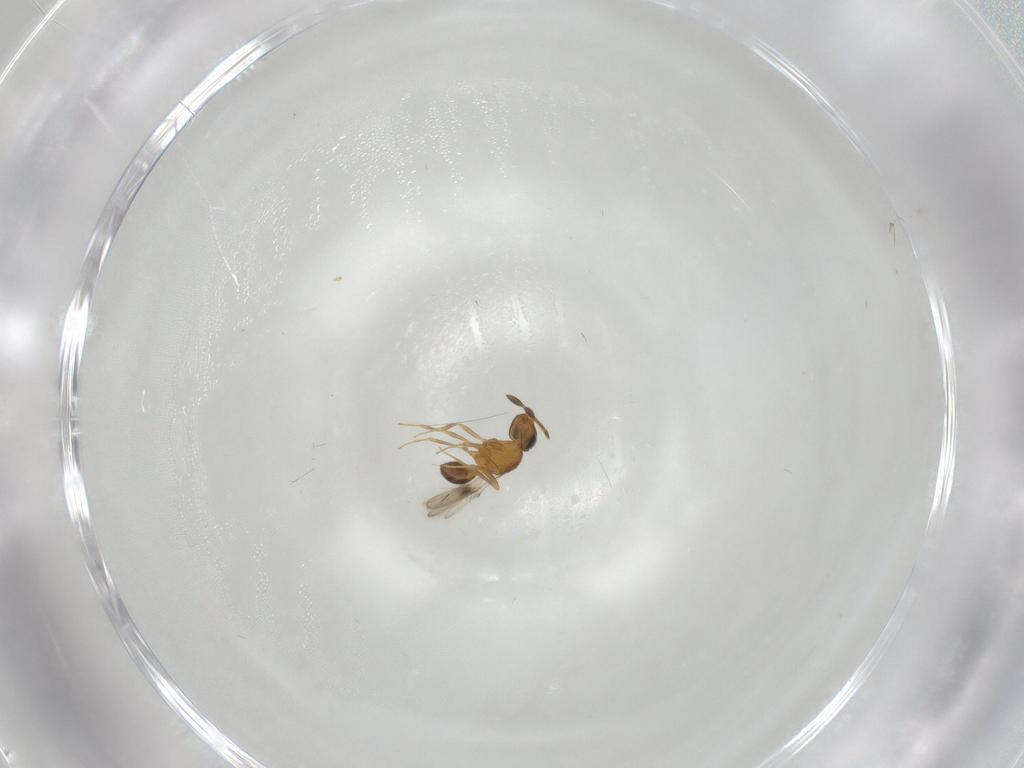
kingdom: Animalia
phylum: Arthropoda
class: Insecta
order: Hymenoptera
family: Scelionidae
